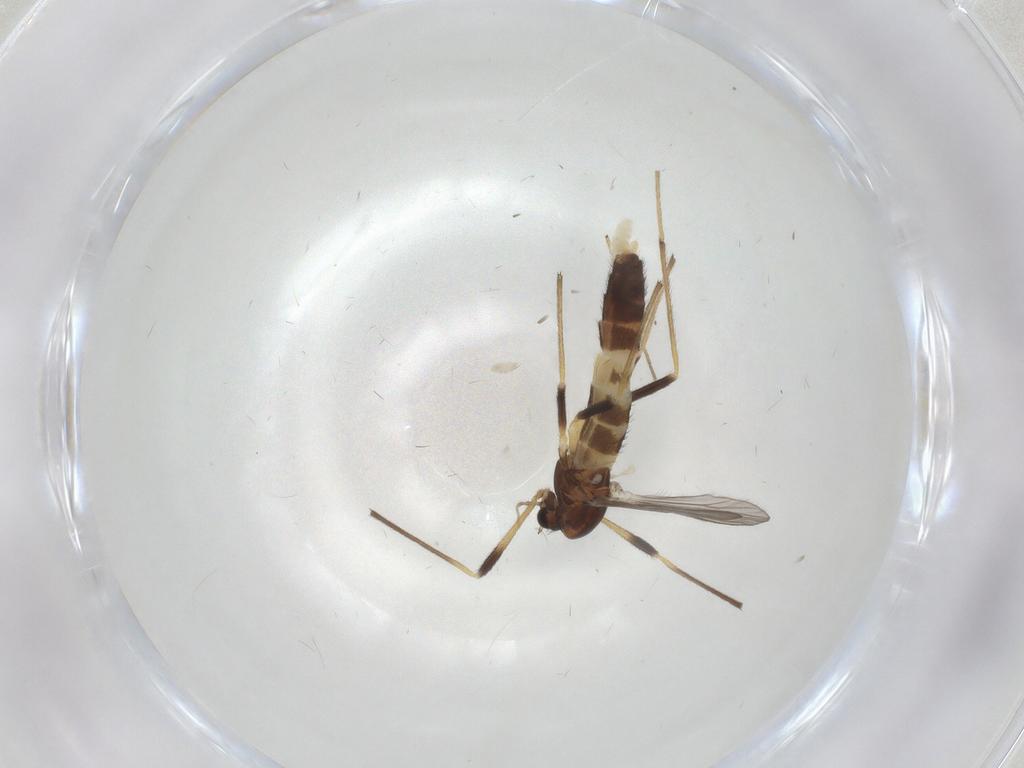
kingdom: Animalia
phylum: Arthropoda
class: Insecta
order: Diptera
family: Chironomidae
